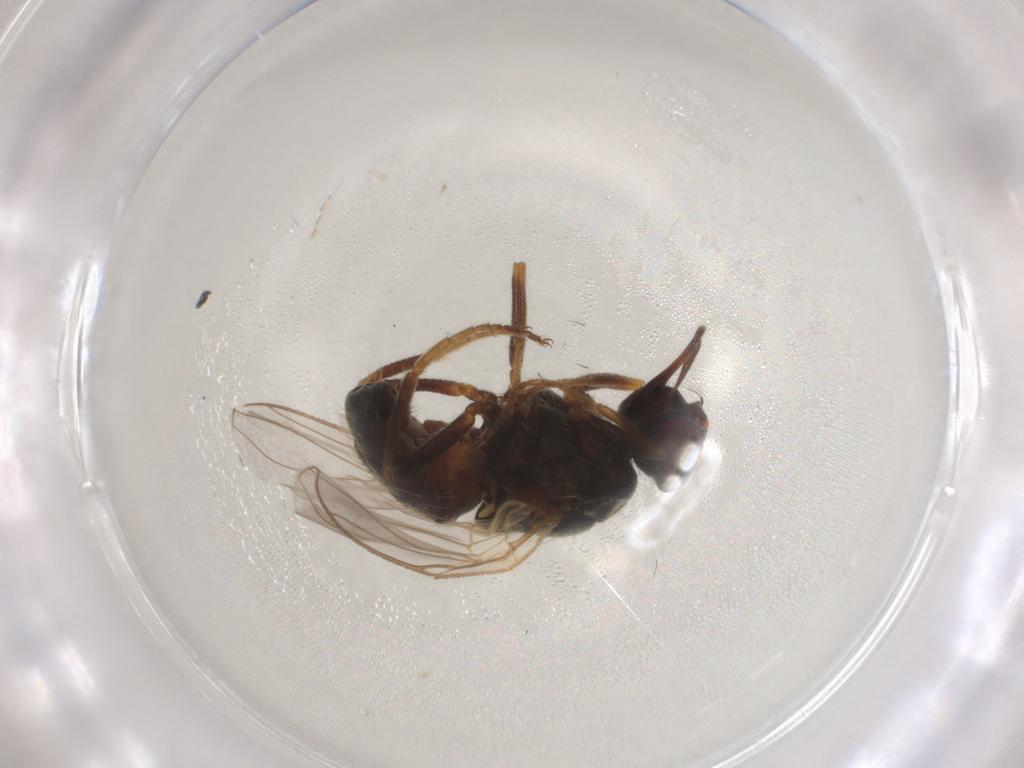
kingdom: Animalia
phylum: Arthropoda
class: Insecta
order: Diptera
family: Muscidae
